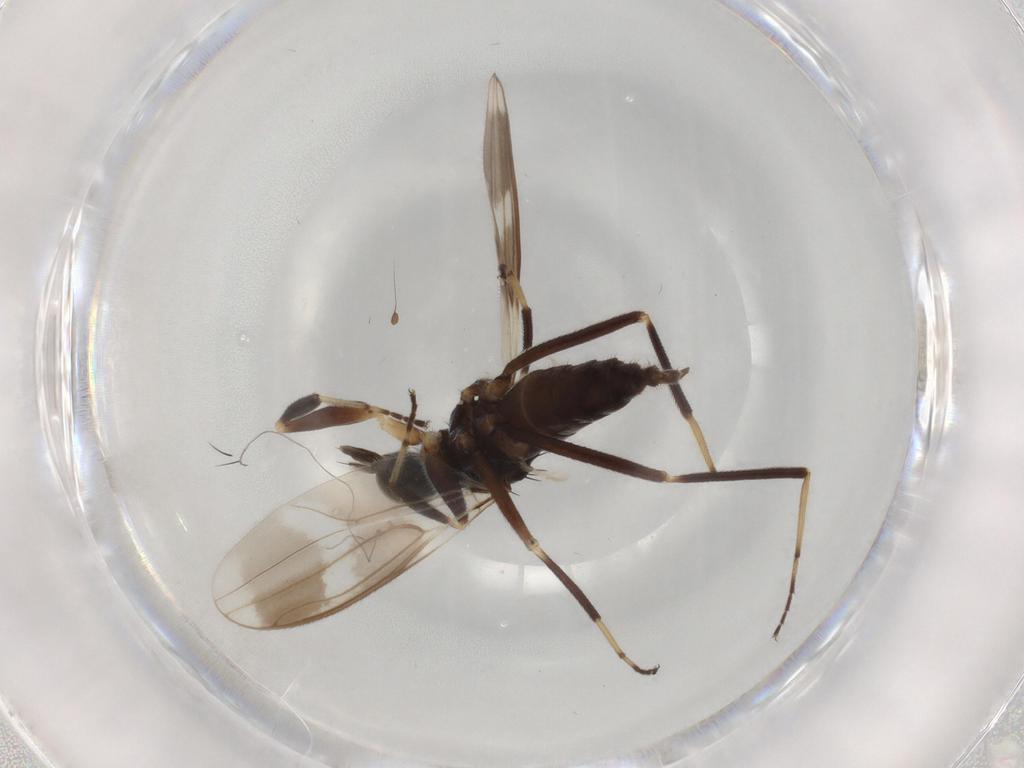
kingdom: Animalia
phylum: Arthropoda
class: Insecta
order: Diptera
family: Hybotidae
